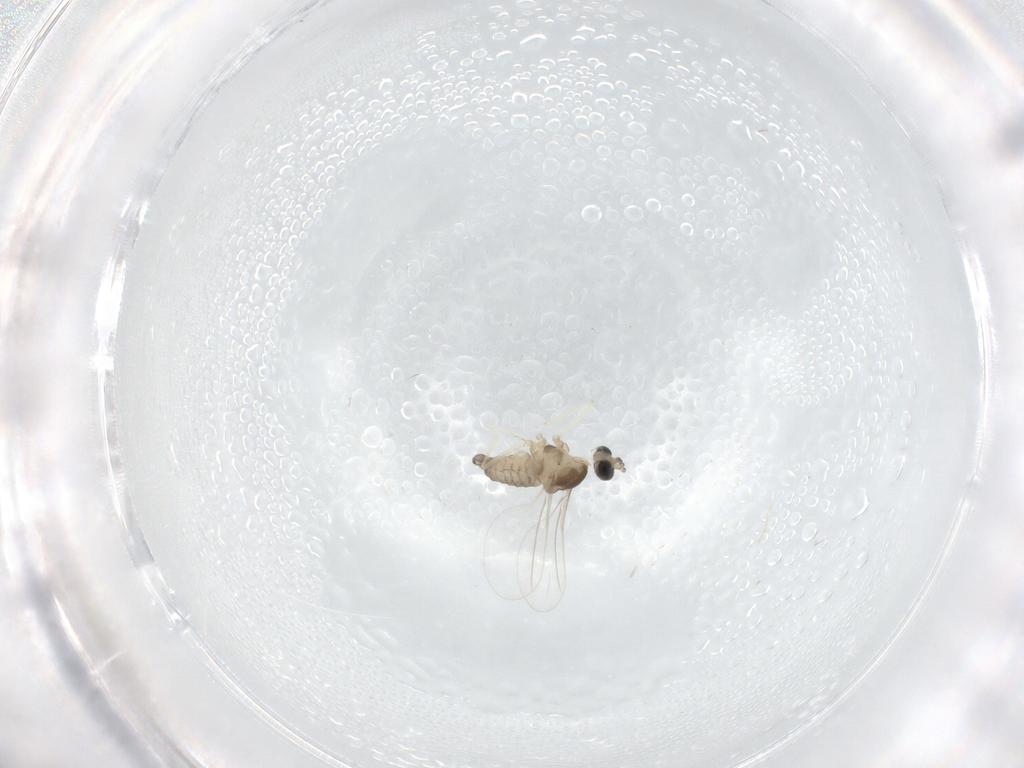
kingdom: Animalia
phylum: Arthropoda
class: Insecta
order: Diptera
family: Cecidomyiidae
